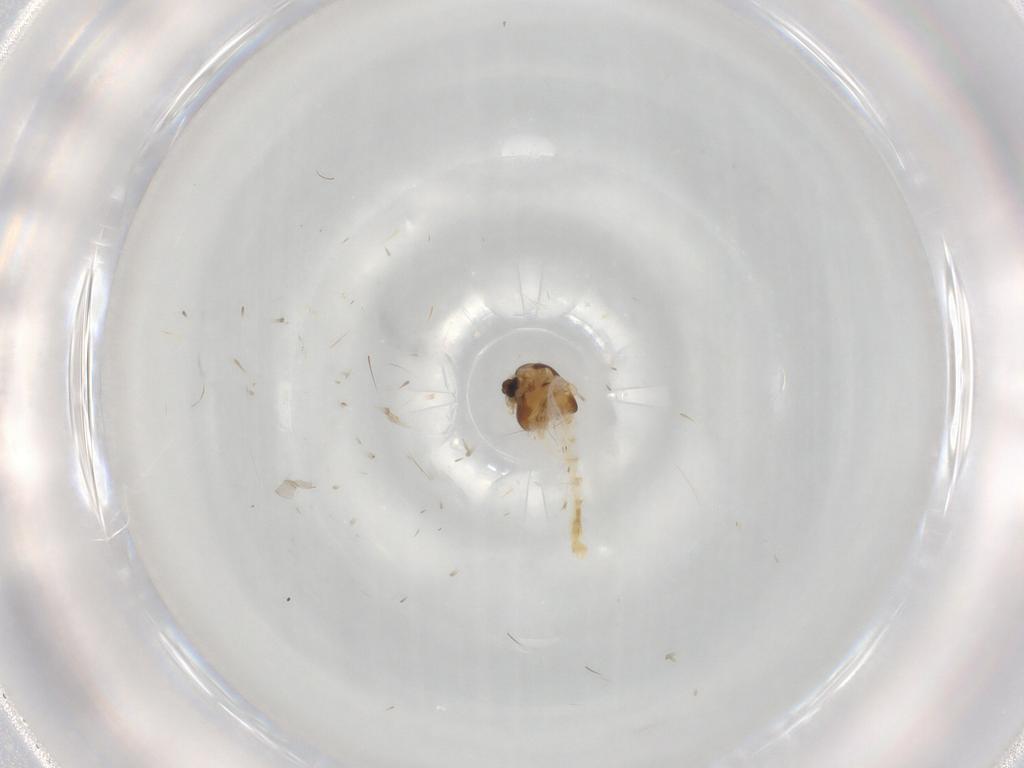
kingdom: Animalia
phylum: Arthropoda
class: Insecta
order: Diptera
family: Chironomidae
